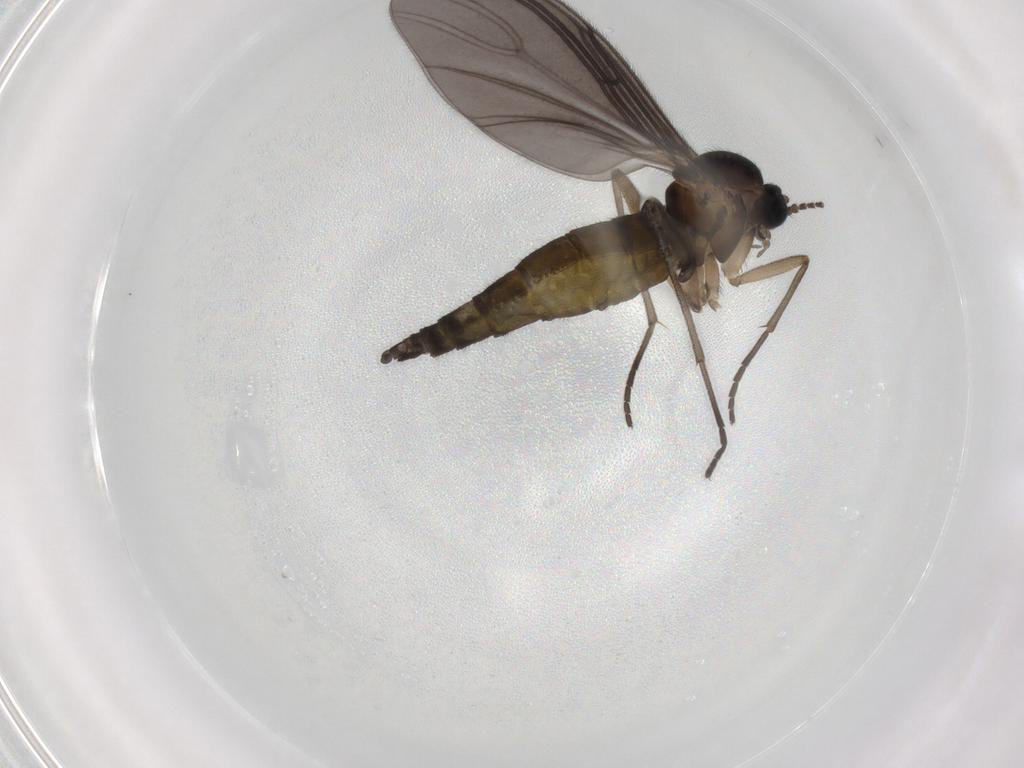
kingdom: Animalia
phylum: Arthropoda
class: Insecta
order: Diptera
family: Sciaridae
